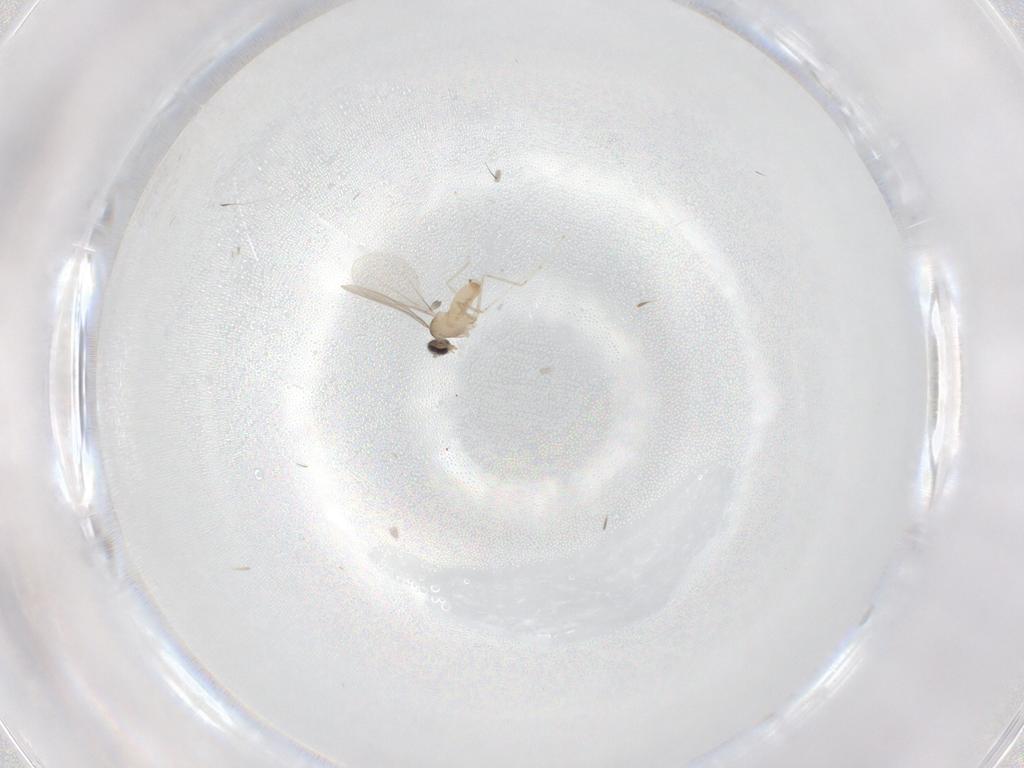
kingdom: Animalia
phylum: Arthropoda
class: Insecta
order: Diptera
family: Cecidomyiidae
